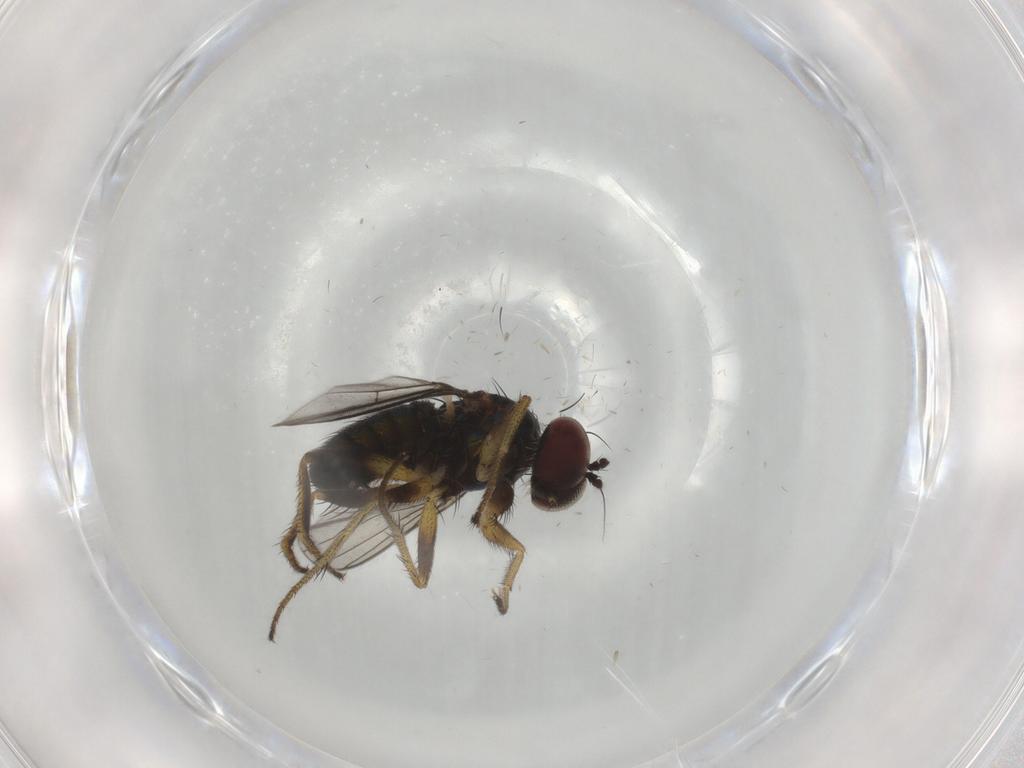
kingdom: Animalia
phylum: Arthropoda
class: Insecta
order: Diptera
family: Dolichopodidae
